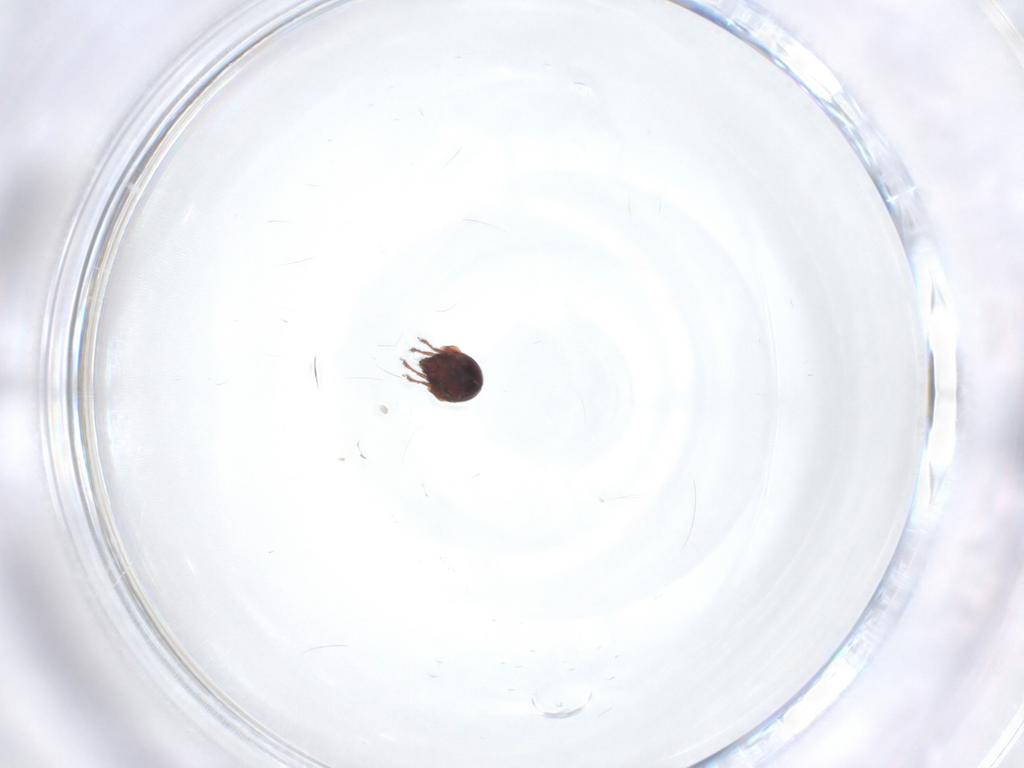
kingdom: Animalia
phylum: Arthropoda
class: Arachnida
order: Sarcoptiformes
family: Ceratozetidae
